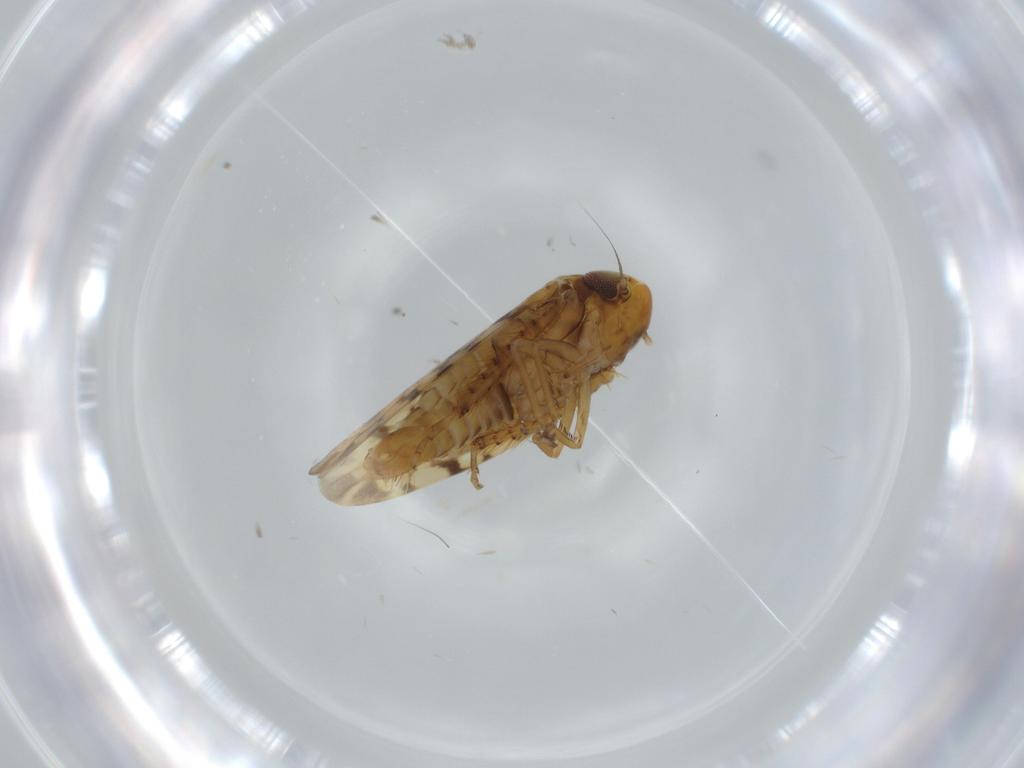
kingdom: Animalia
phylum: Arthropoda
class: Insecta
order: Hemiptera
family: Cicadellidae
